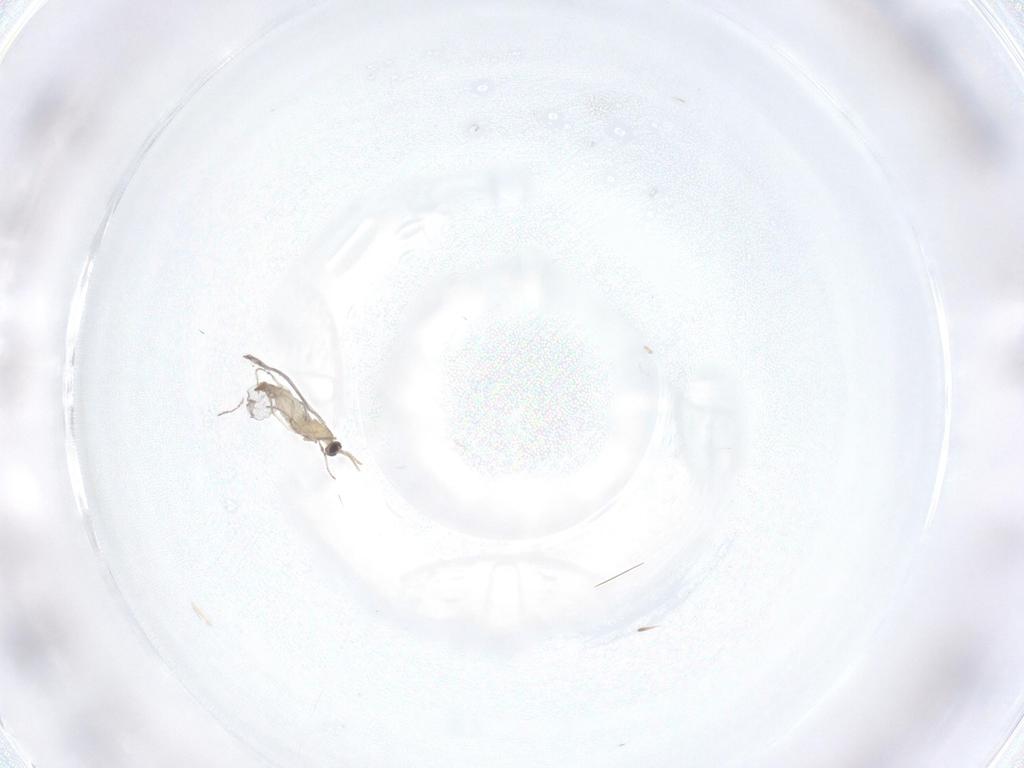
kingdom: Animalia
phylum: Arthropoda
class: Insecta
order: Diptera
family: Cecidomyiidae
